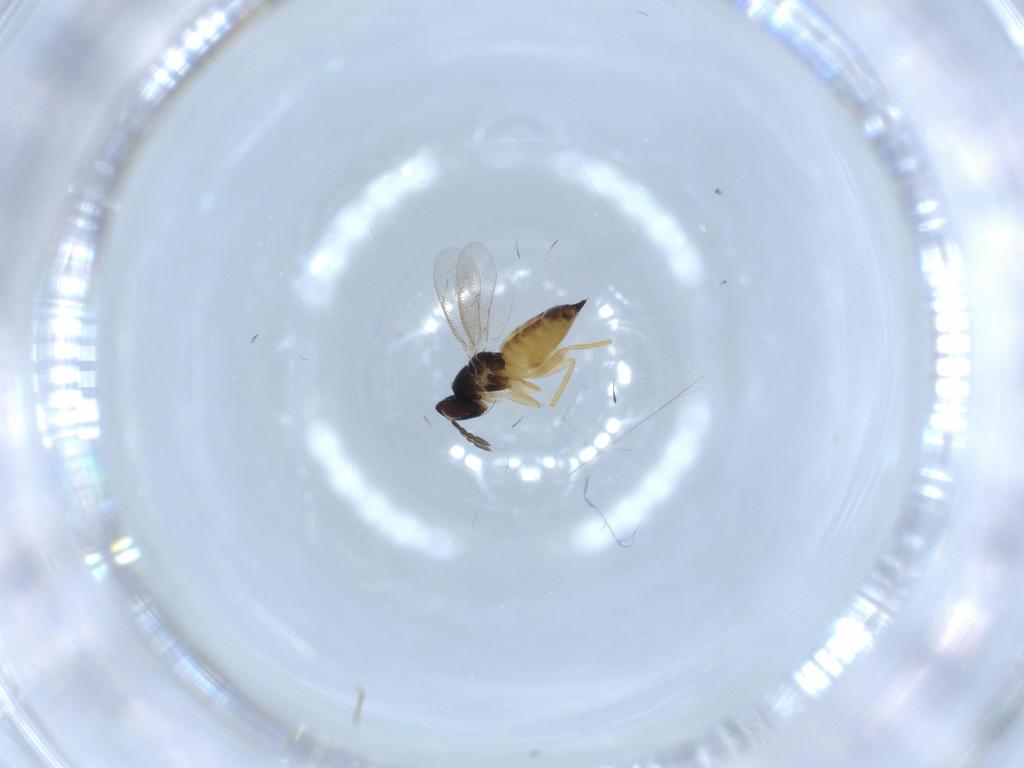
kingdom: Animalia
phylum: Arthropoda
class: Insecta
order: Hymenoptera
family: Eulophidae
